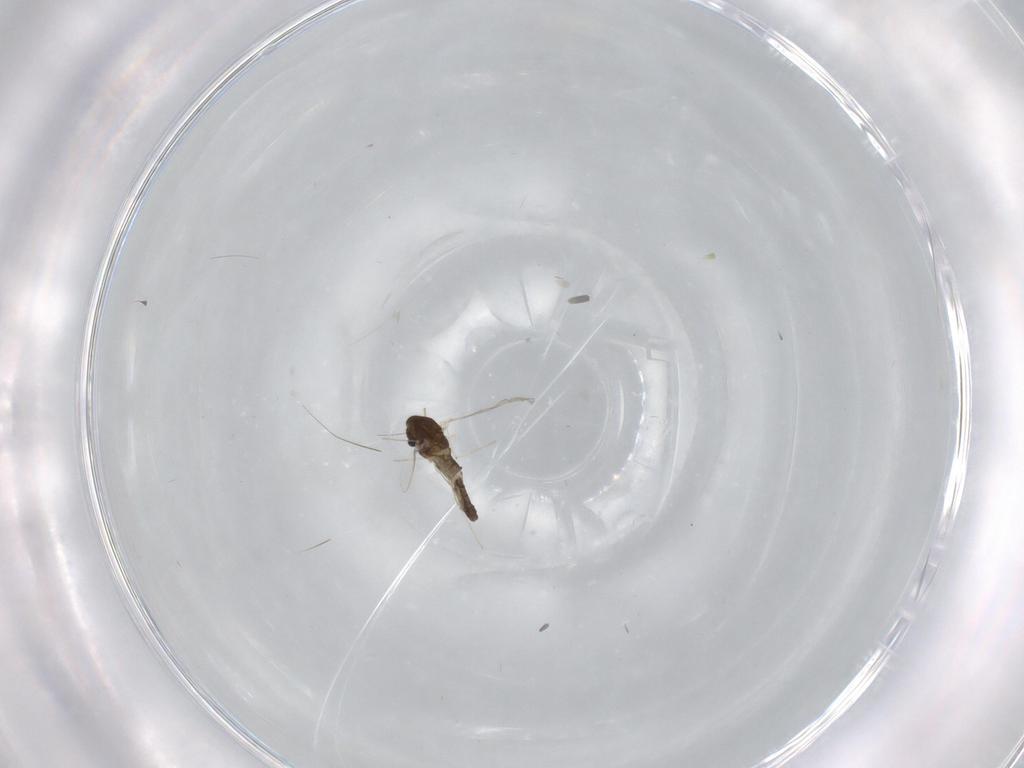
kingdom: Animalia
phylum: Arthropoda
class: Insecta
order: Diptera
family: Chironomidae
